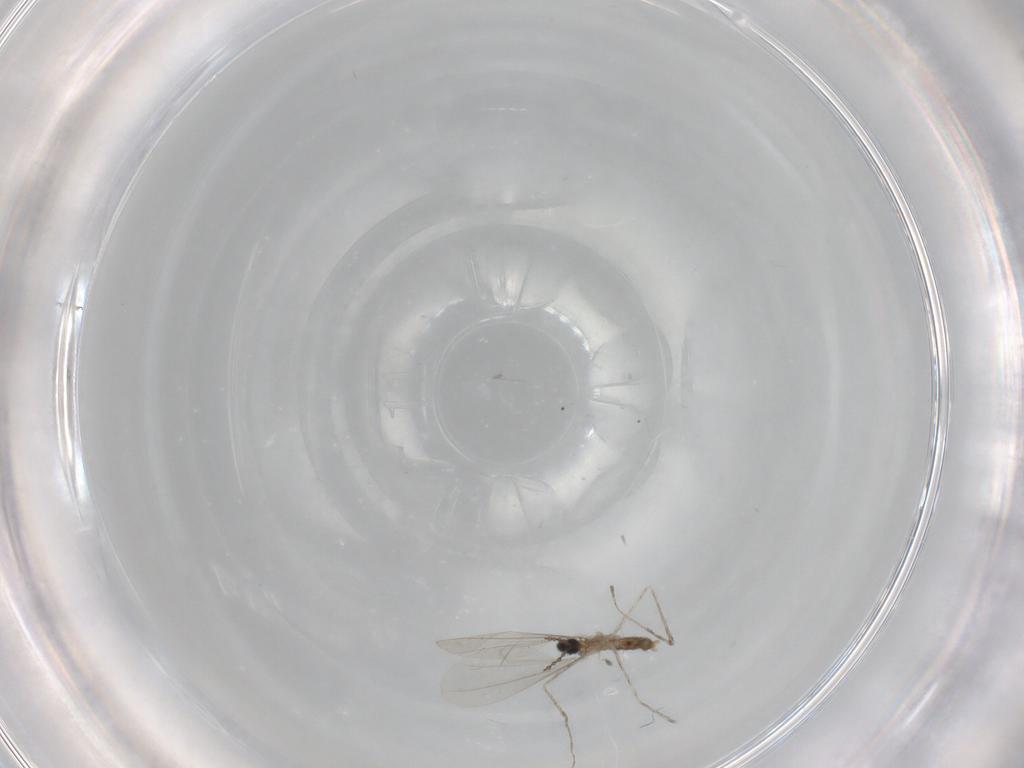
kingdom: Animalia
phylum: Arthropoda
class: Insecta
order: Diptera
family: Cecidomyiidae
